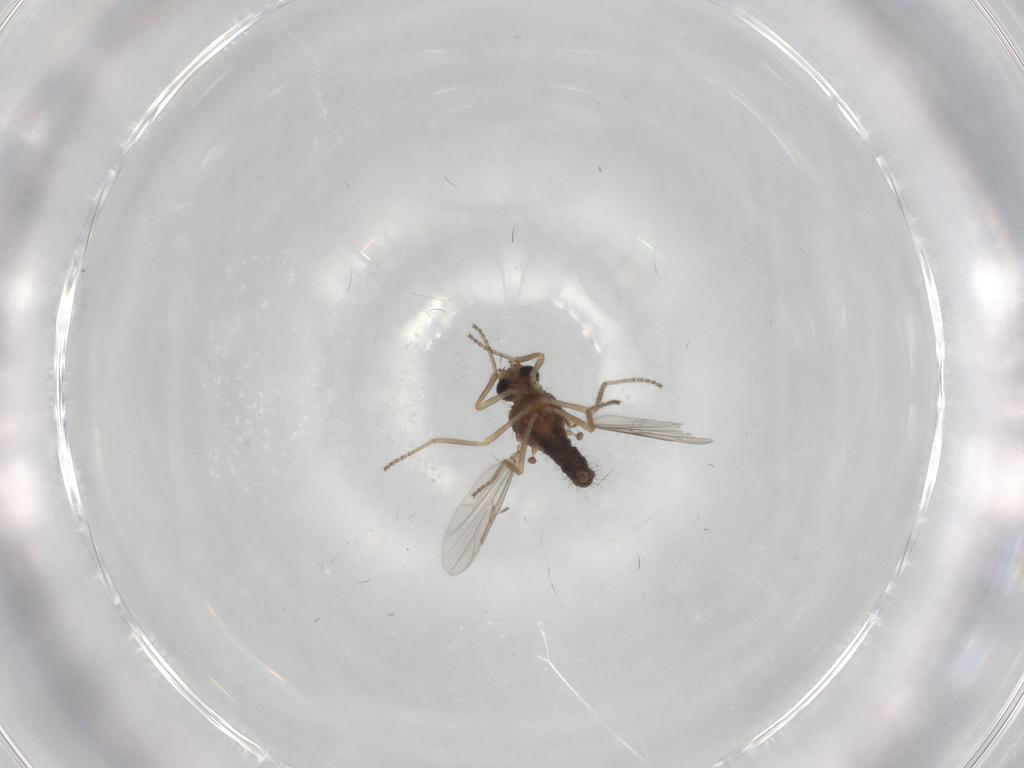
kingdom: Animalia
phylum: Arthropoda
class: Insecta
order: Diptera
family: Ceratopogonidae
